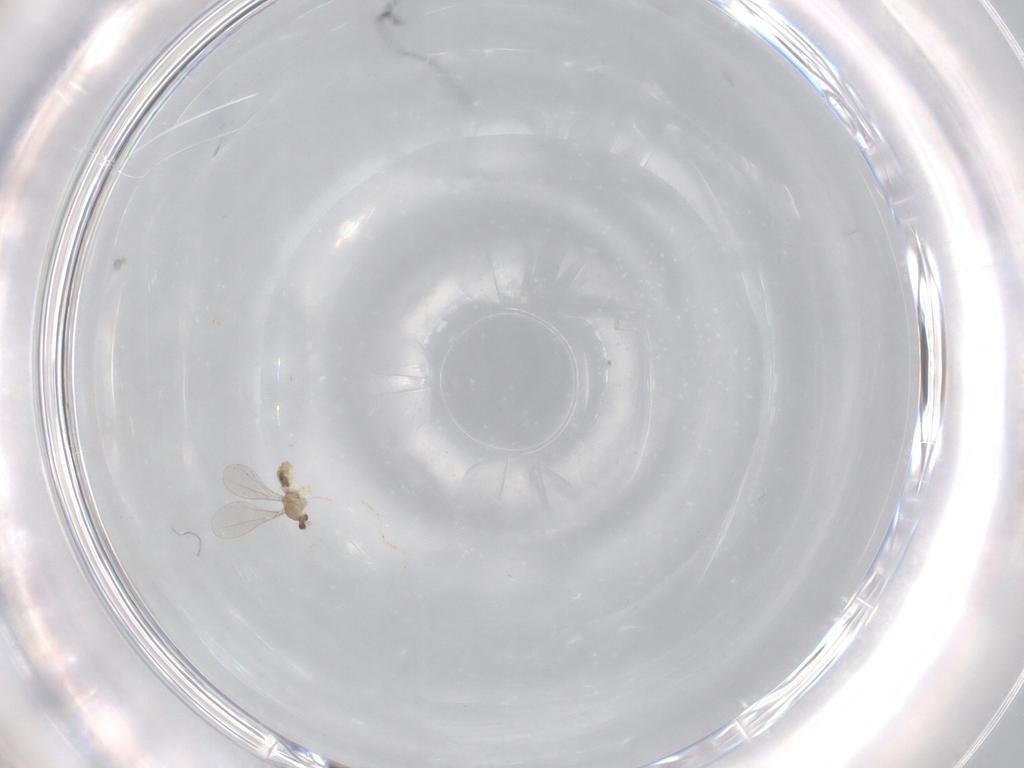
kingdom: Animalia
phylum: Arthropoda
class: Insecta
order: Diptera
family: Cecidomyiidae
